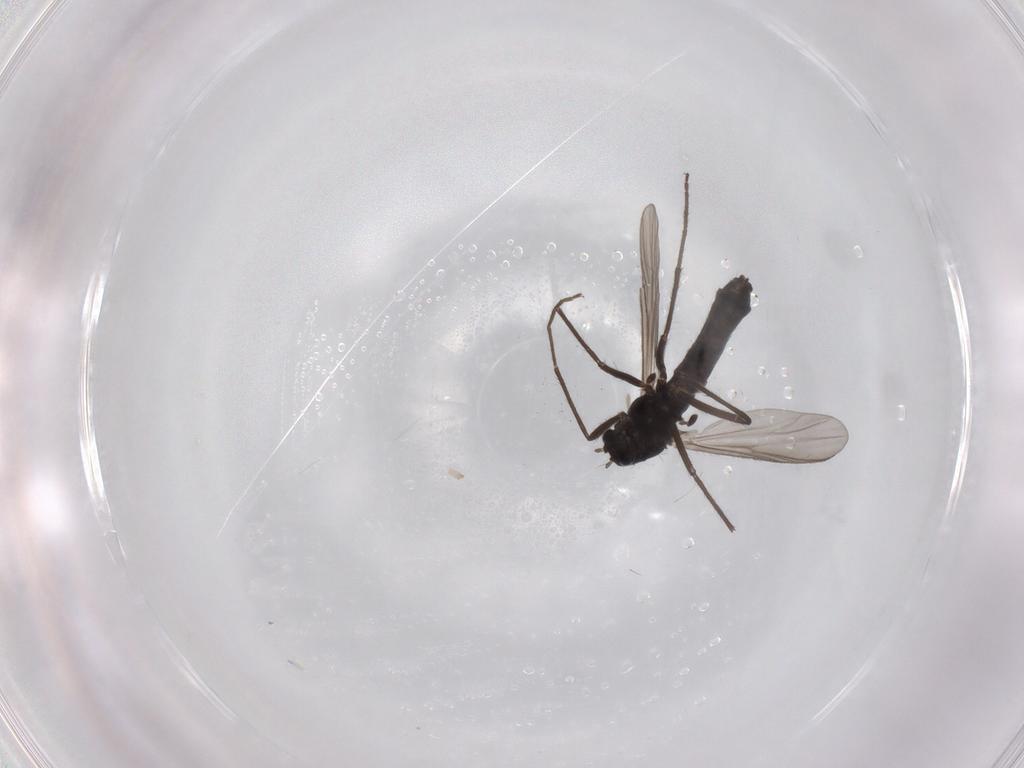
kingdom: Animalia
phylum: Arthropoda
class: Insecta
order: Diptera
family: Chironomidae
